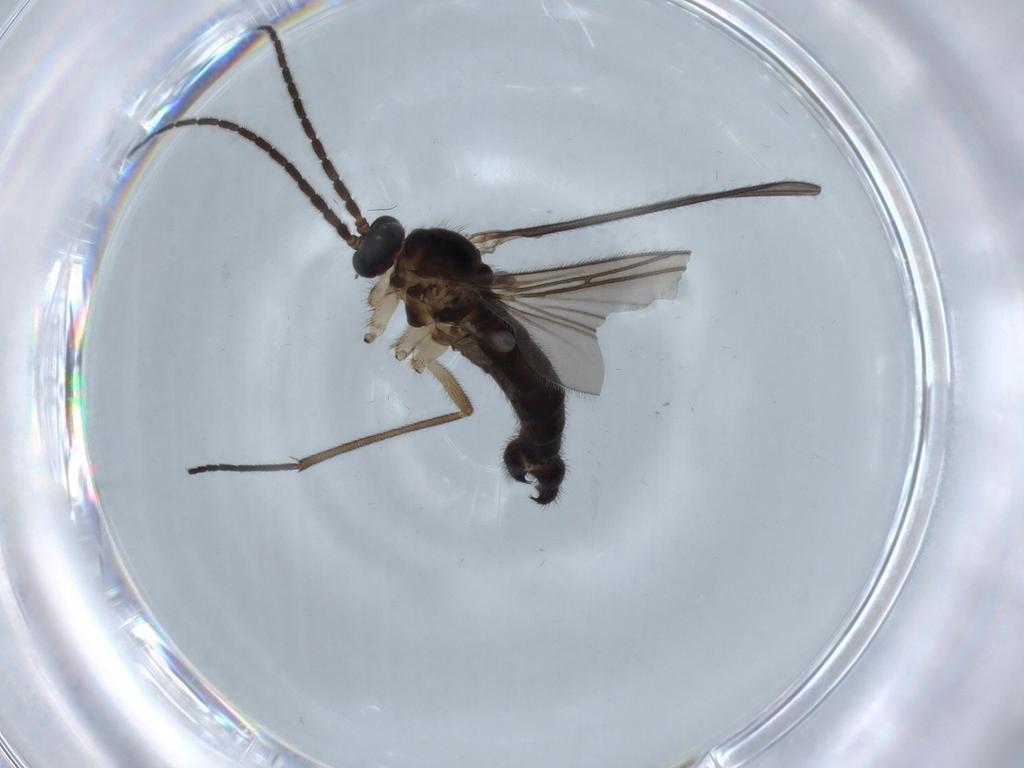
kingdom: Animalia
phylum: Arthropoda
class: Insecta
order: Diptera
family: Sciaridae
